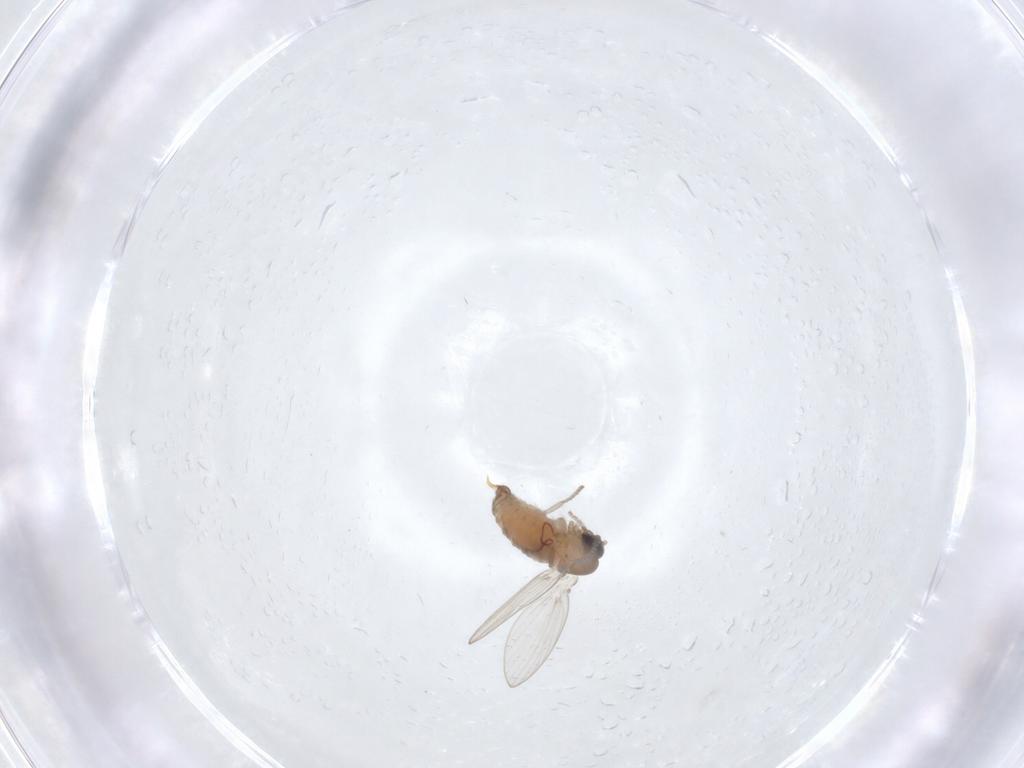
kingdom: Animalia
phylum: Arthropoda
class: Insecta
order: Diptera
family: Psychodidae
